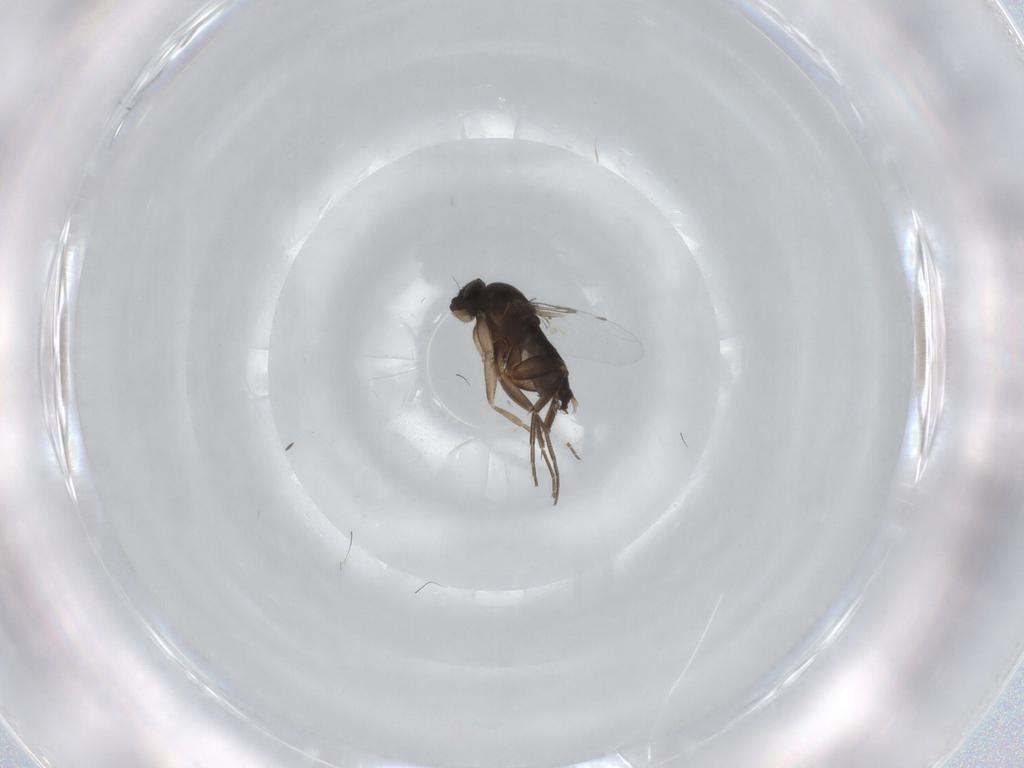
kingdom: Animalia
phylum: Arthropoda
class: Insecta
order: Diptera
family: Phoridae
